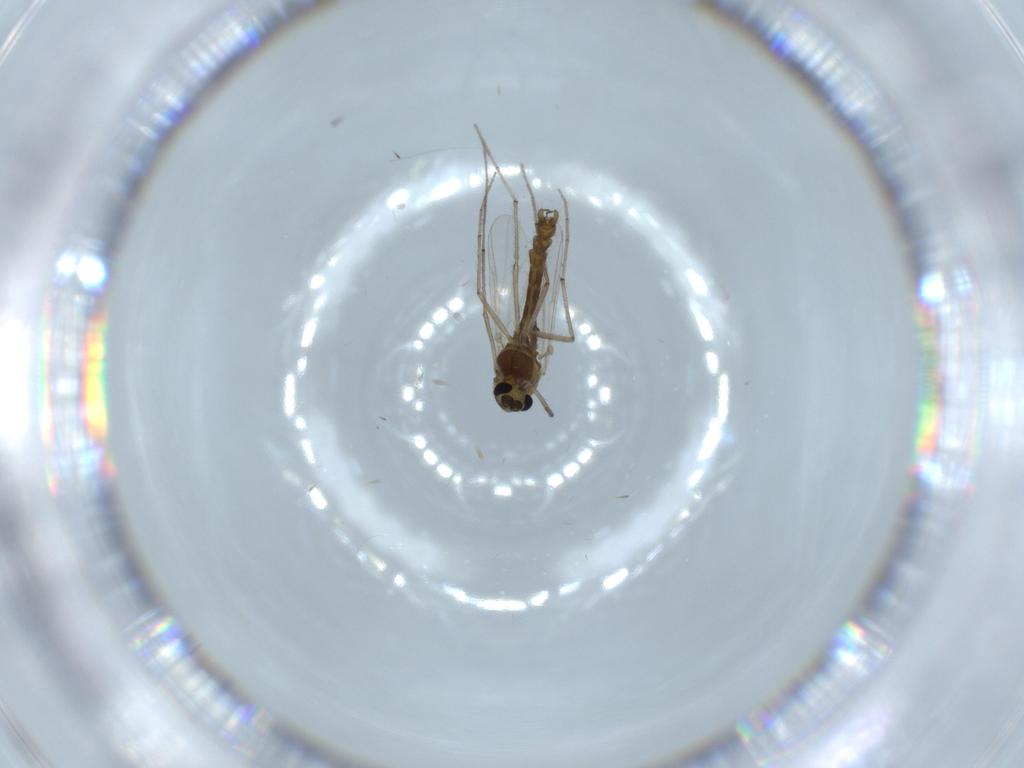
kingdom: Animalia
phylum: Arthropoda
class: Insecta
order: Diptera
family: Chironomidae
